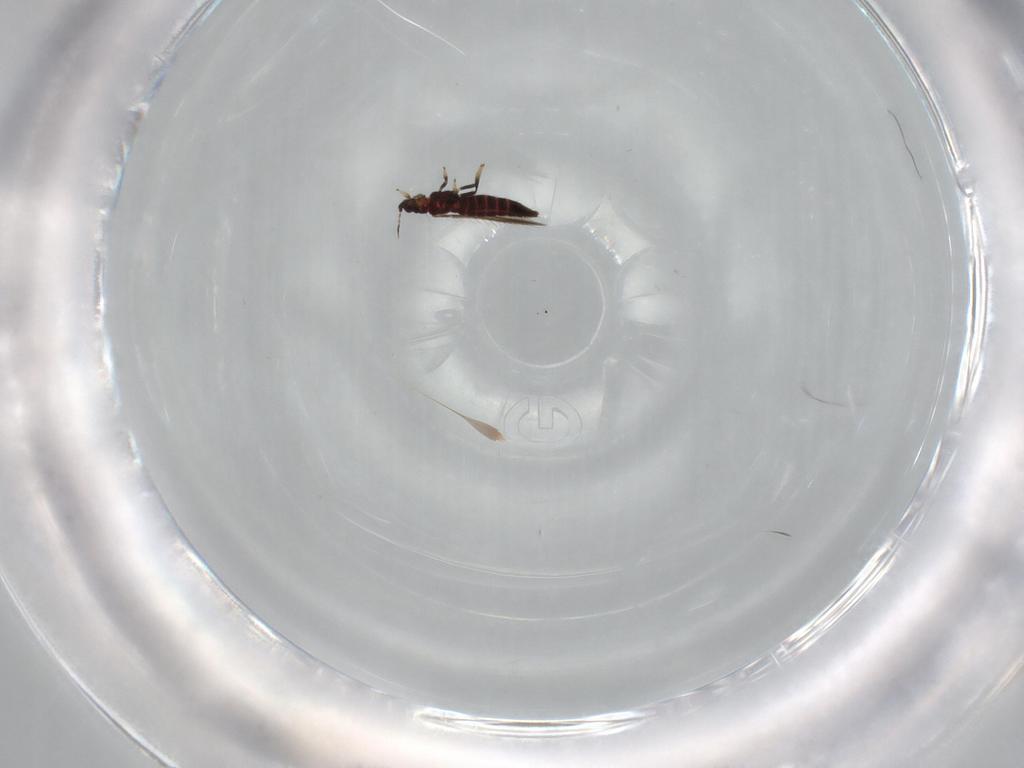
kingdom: Animalia
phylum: Arthropoda
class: Insecta
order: Thysanoptera
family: Thripidae
